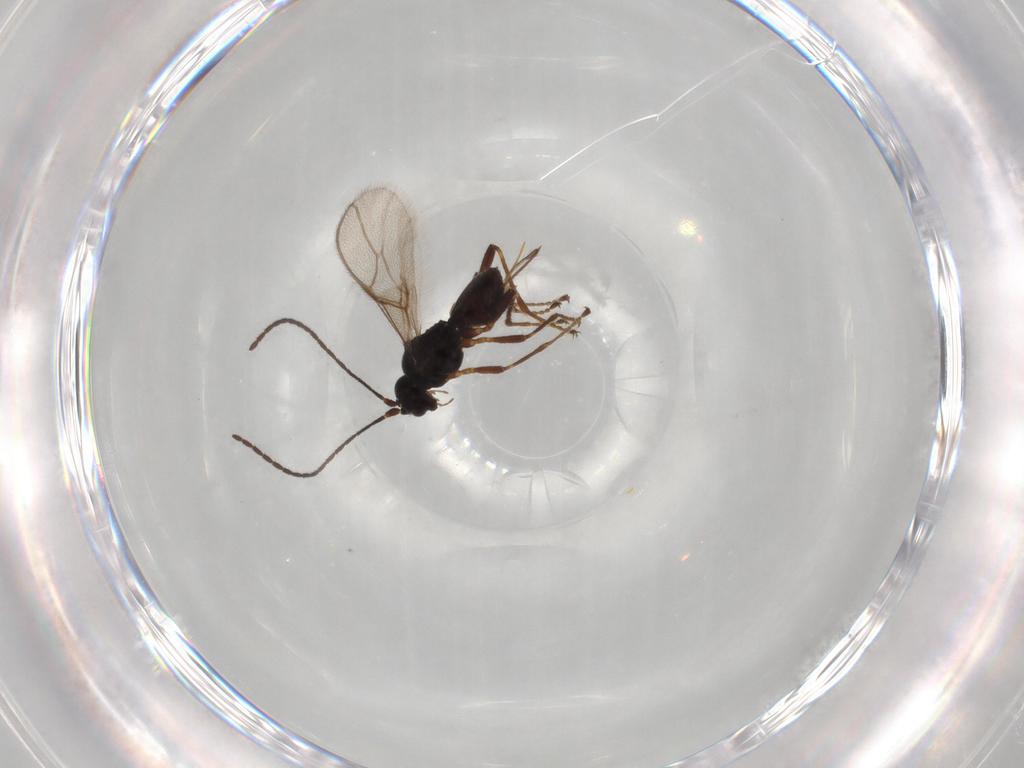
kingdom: Animalia
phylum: Arthropoda
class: Insecta
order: Hymenoptera
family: Braconidae
